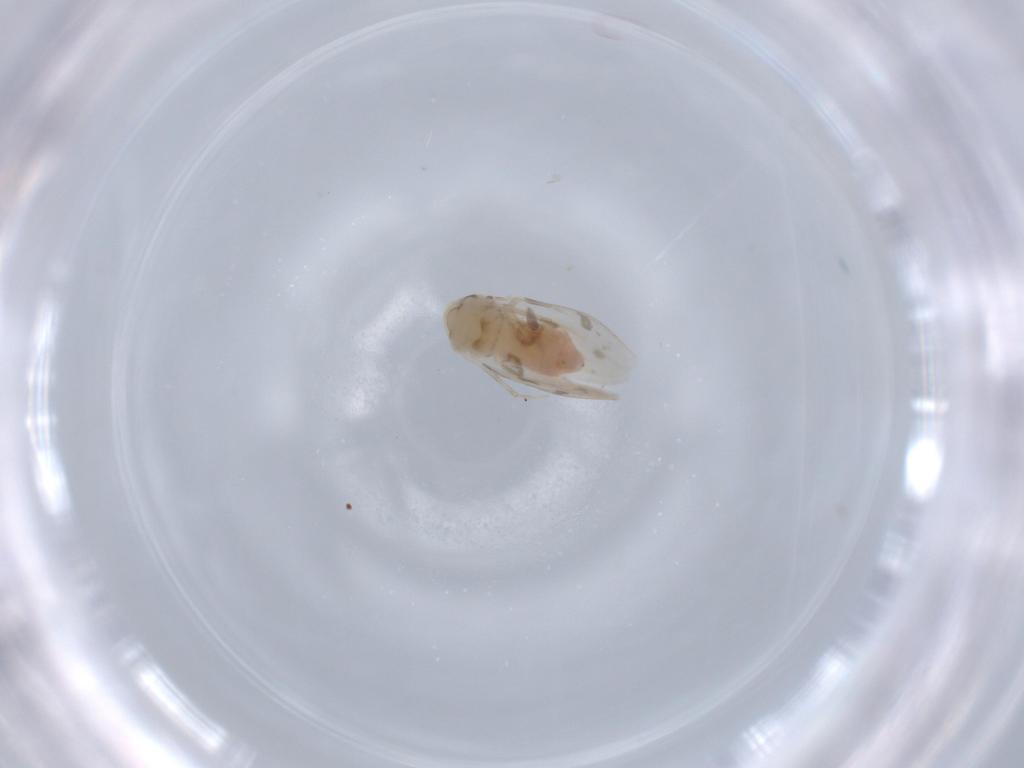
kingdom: Animalia
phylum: Arthropoda
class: Insecta
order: Hemiptera
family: Aleyrodidae
